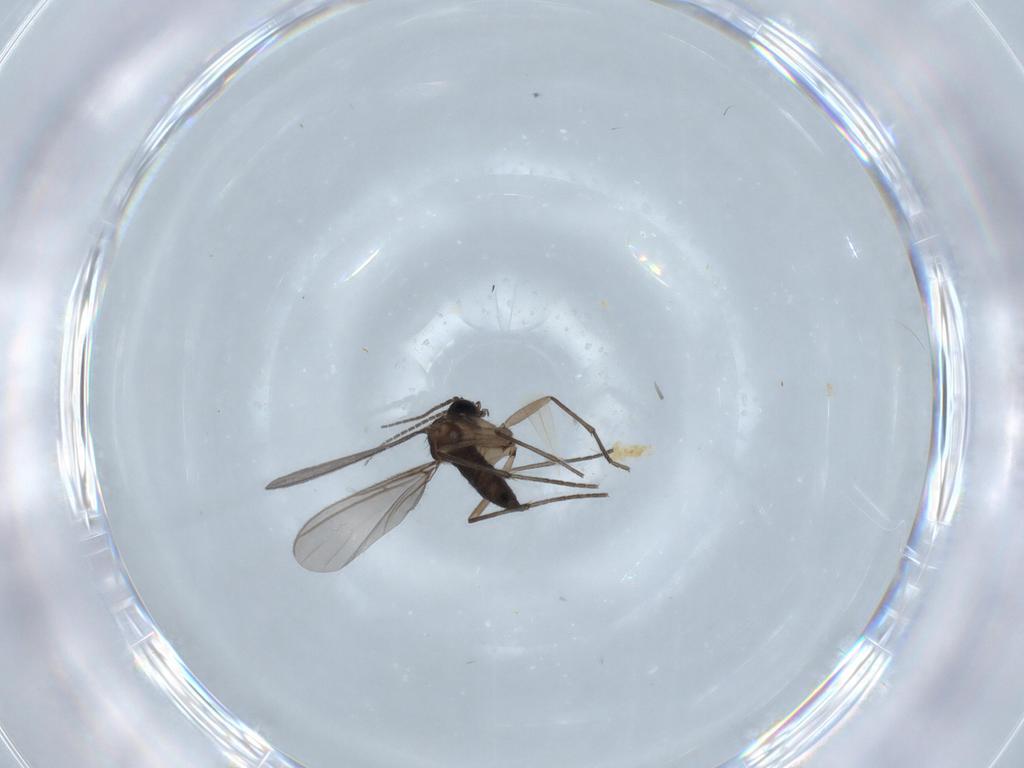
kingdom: Animalia
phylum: Arthropoda
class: Insecta
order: Diptera
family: Sciaridae
